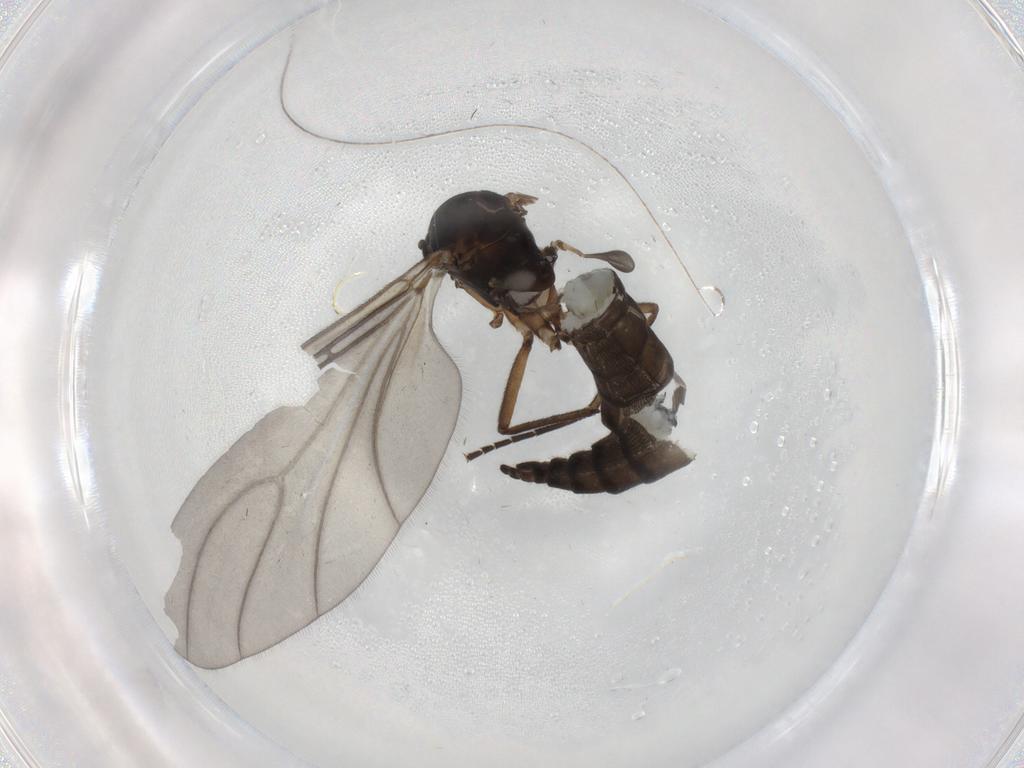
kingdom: Animalia
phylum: Arthropoda
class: Insecta
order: Diptera
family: Sciaridae
